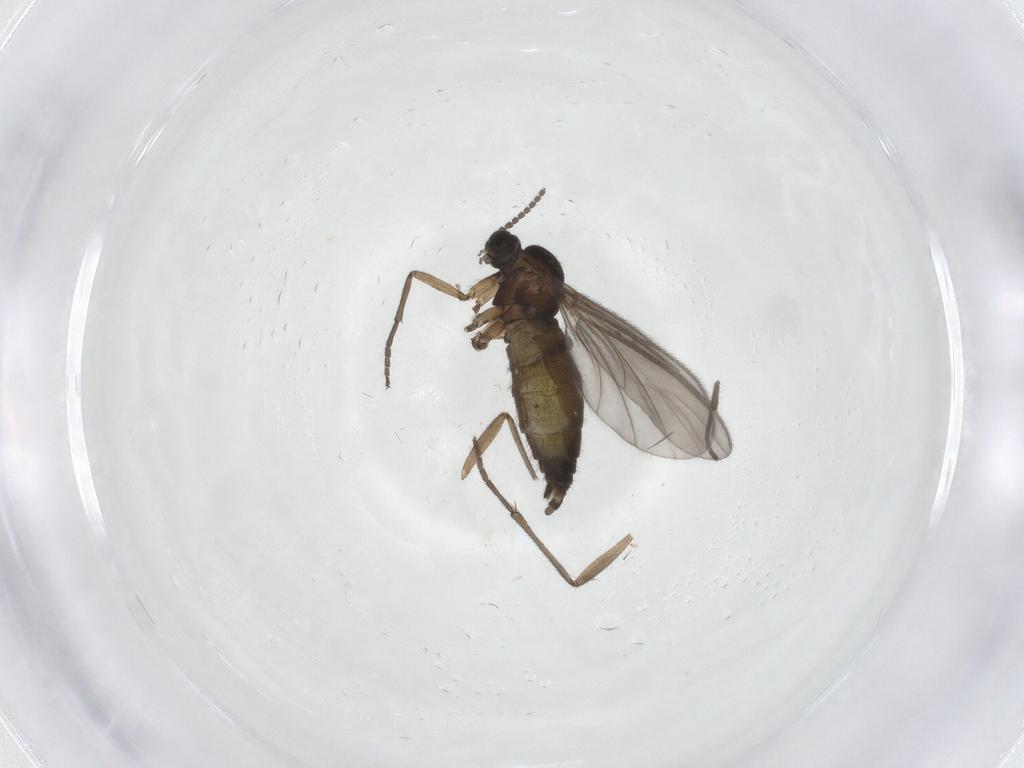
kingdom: Animalia
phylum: Arthropoda
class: Insecta
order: Diptera
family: Sciaridae
